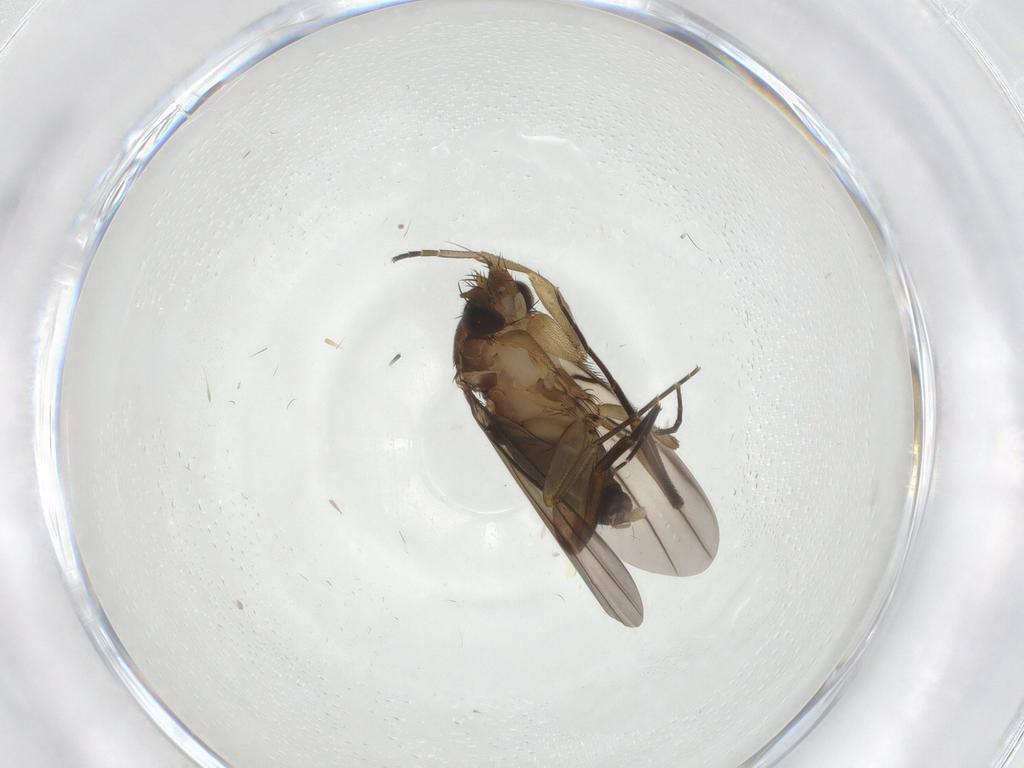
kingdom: Animalia
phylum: Arthropoda
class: Insecta
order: Diptera
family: Phoridae
